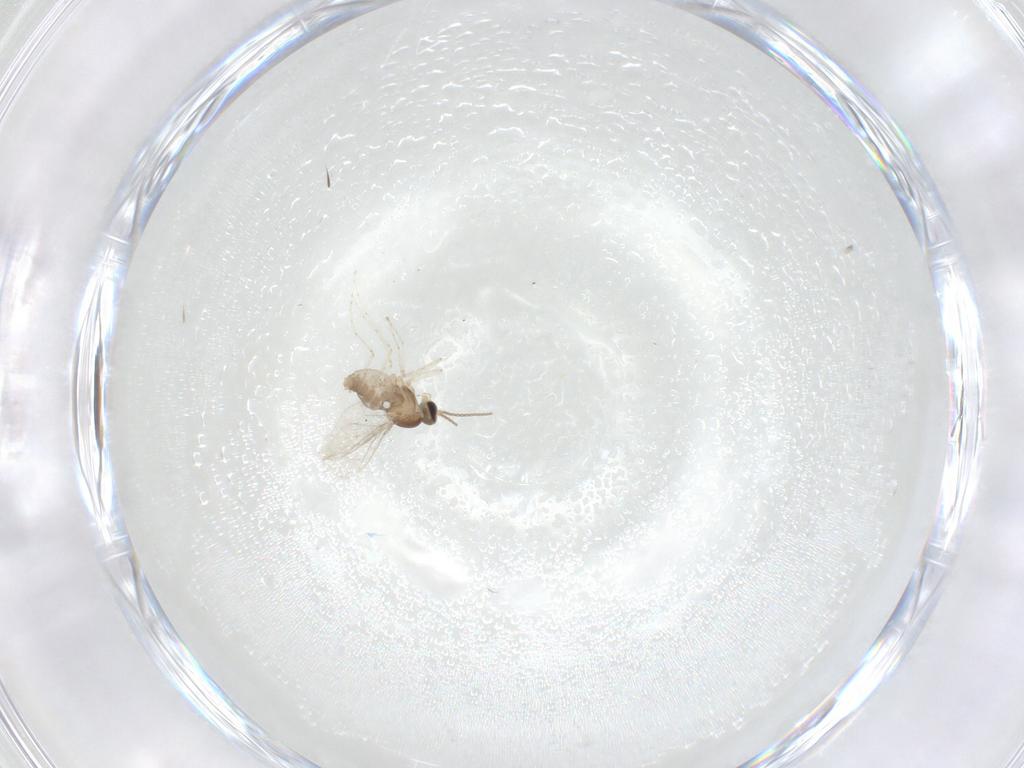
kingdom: Animalia
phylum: Arthropoda
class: Insecta
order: Diptera
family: Cecidomyiidae
